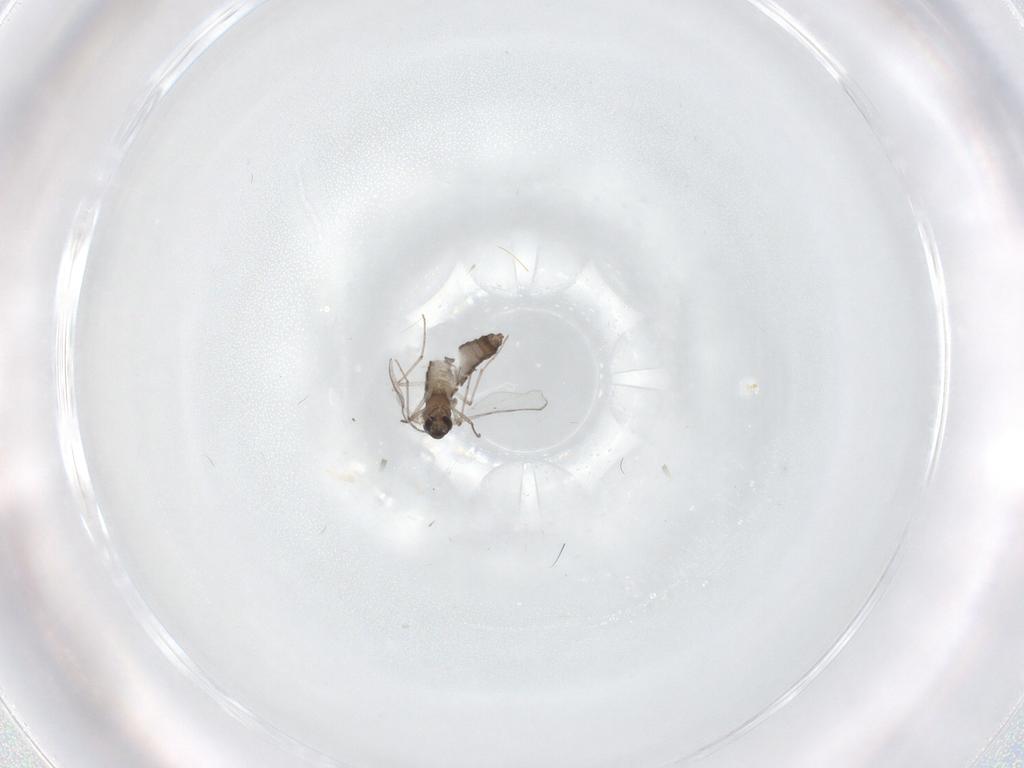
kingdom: Animalia
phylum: Arthropoda
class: Insecta
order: Diptera
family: Chironomidae
